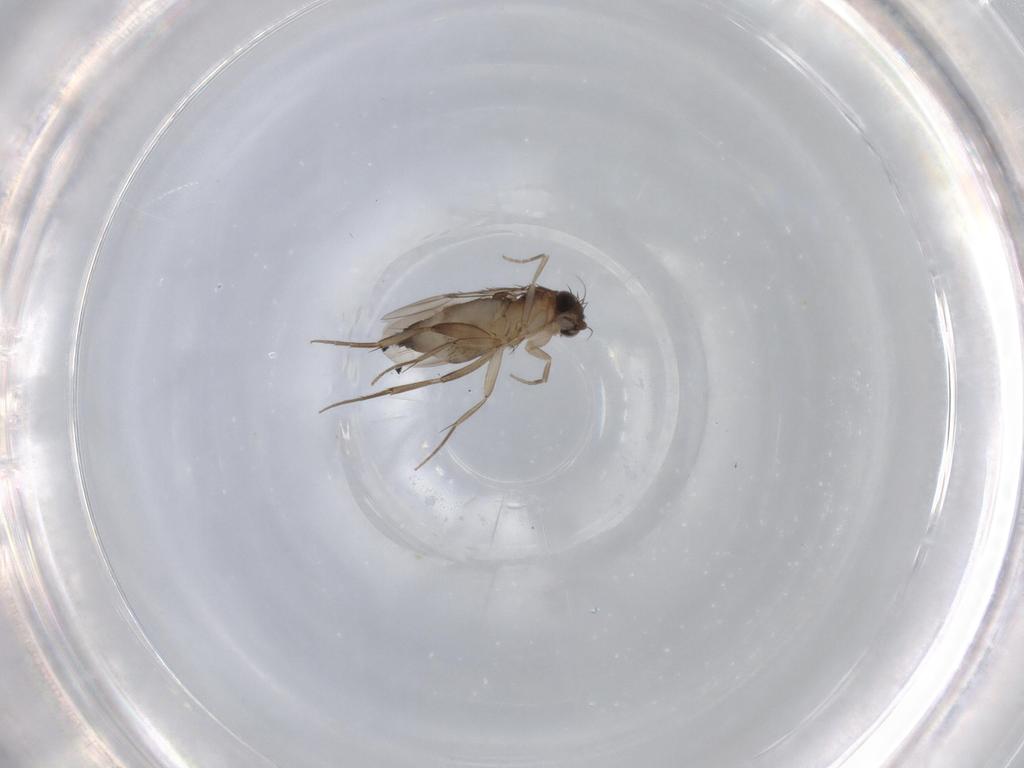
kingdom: Animalia
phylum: Arthropoda
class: Insecta
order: Diptera
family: Phoridae
